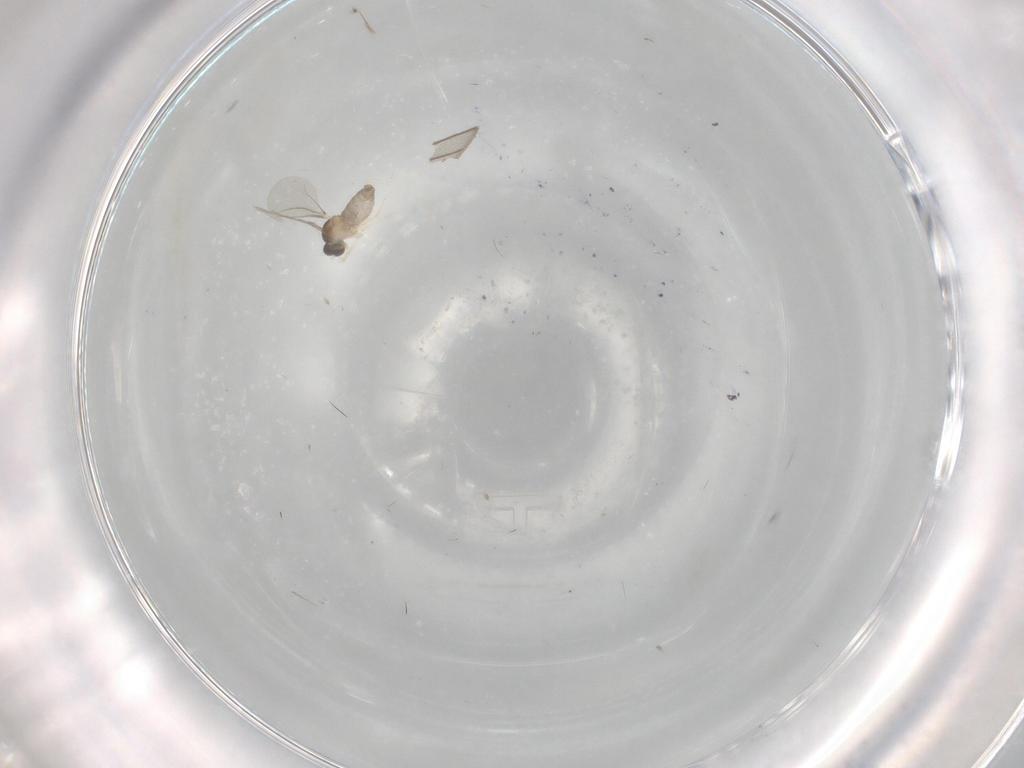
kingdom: Animalia
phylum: Arthropoda
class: Insecta
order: Diptera
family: Cecidomyiidae
